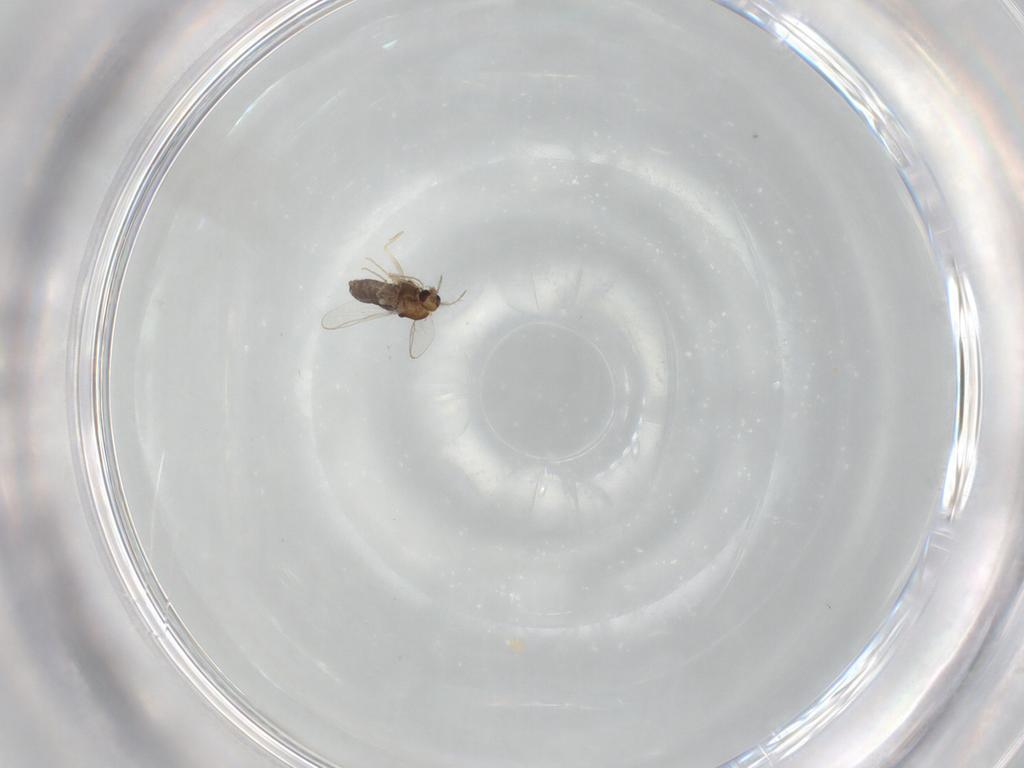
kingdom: Animalia
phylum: Arthropoda
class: Insecta
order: Diptera
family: Chironomidae
